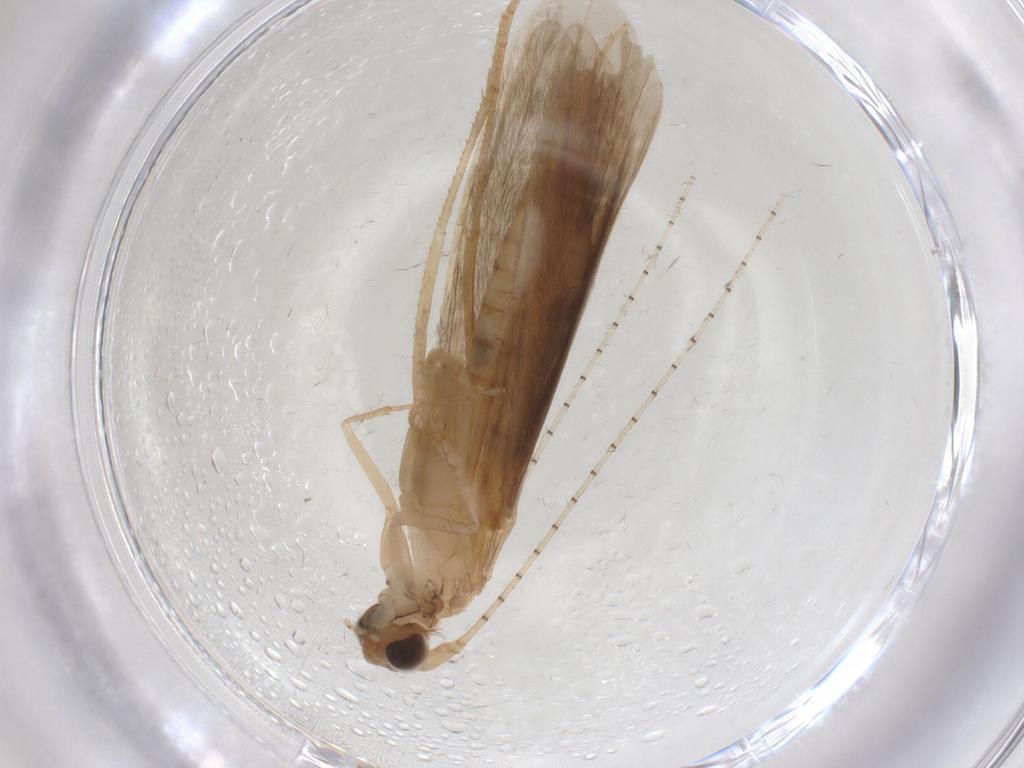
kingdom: Animalia
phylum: Arthropoda
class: Insecta
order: Trichoptera
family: Leptoceridae
